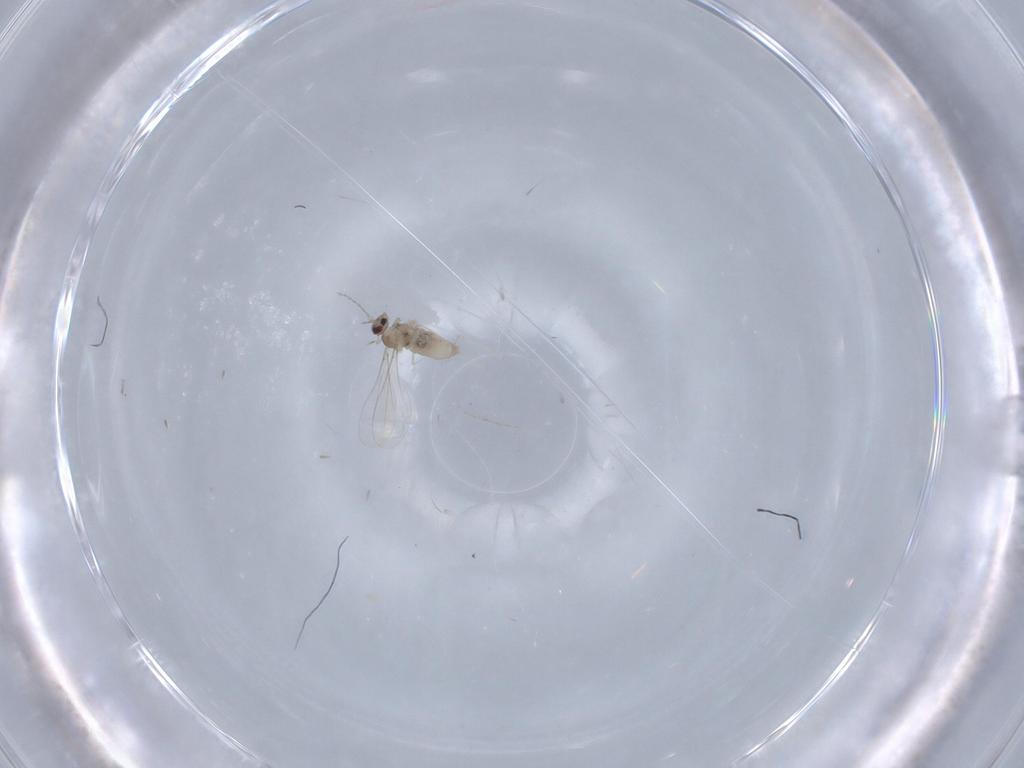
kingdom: Animalia
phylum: Arthropoda
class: Insecta
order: Diptera
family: Cecidomyiidae
